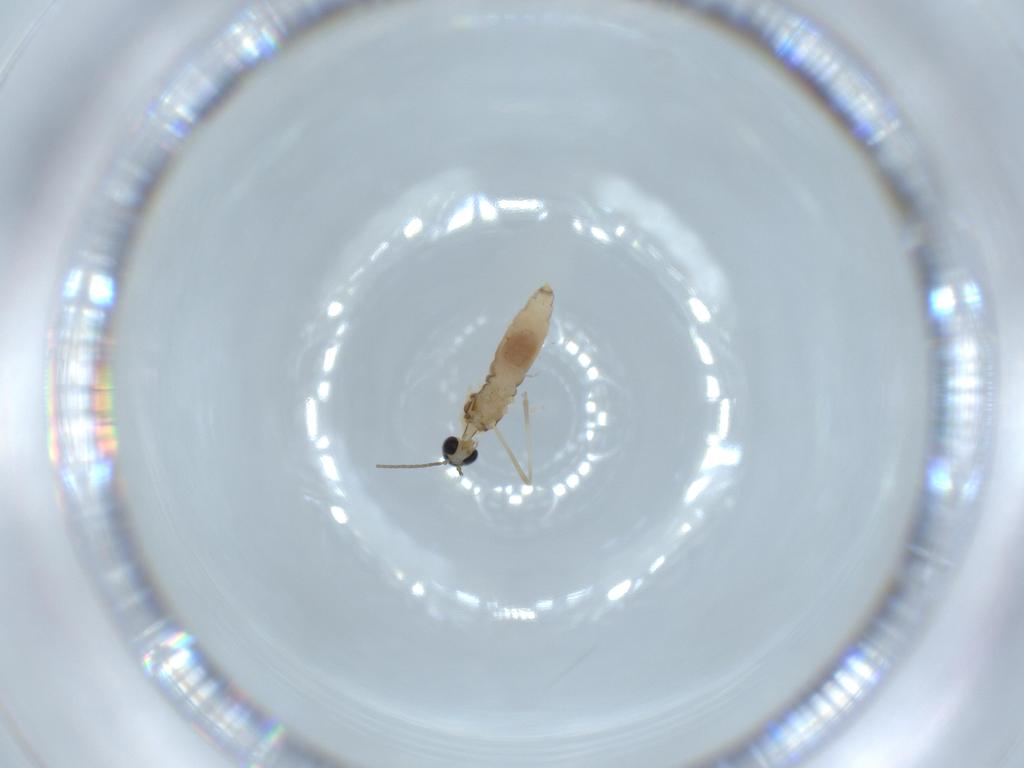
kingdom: Animalia
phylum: Arthropoda
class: Insecta
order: Diptera
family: Cecidomyiidae
